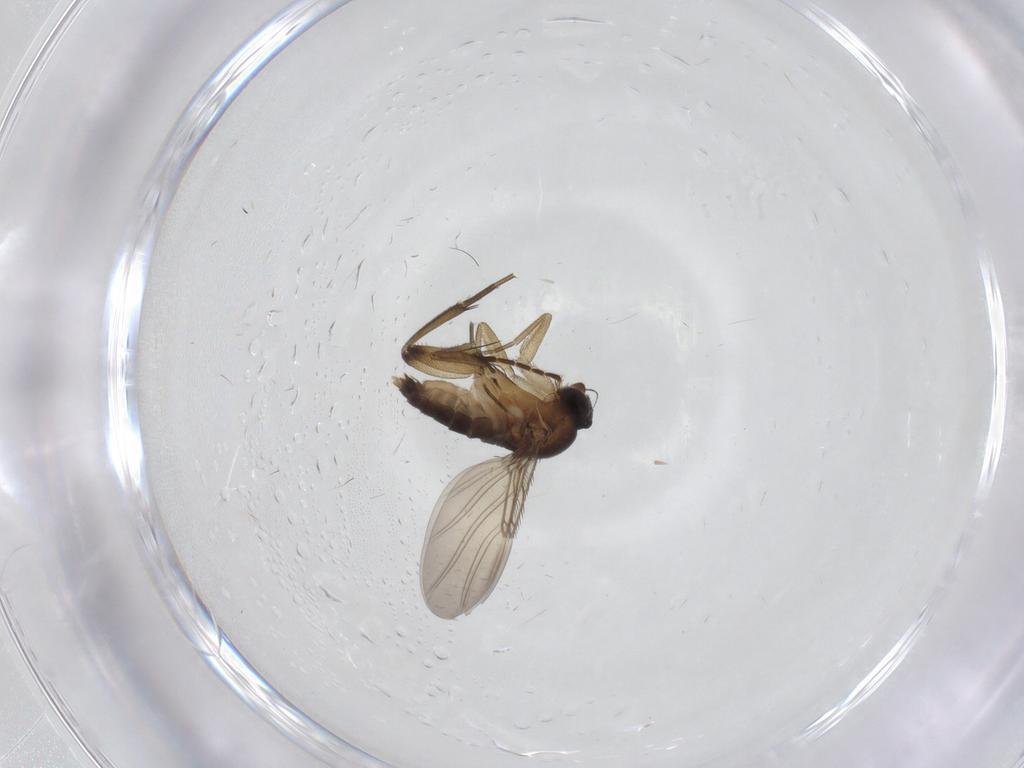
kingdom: Animalia
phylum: Arthropoda
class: Insecta
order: Diptera
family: Phoridae
